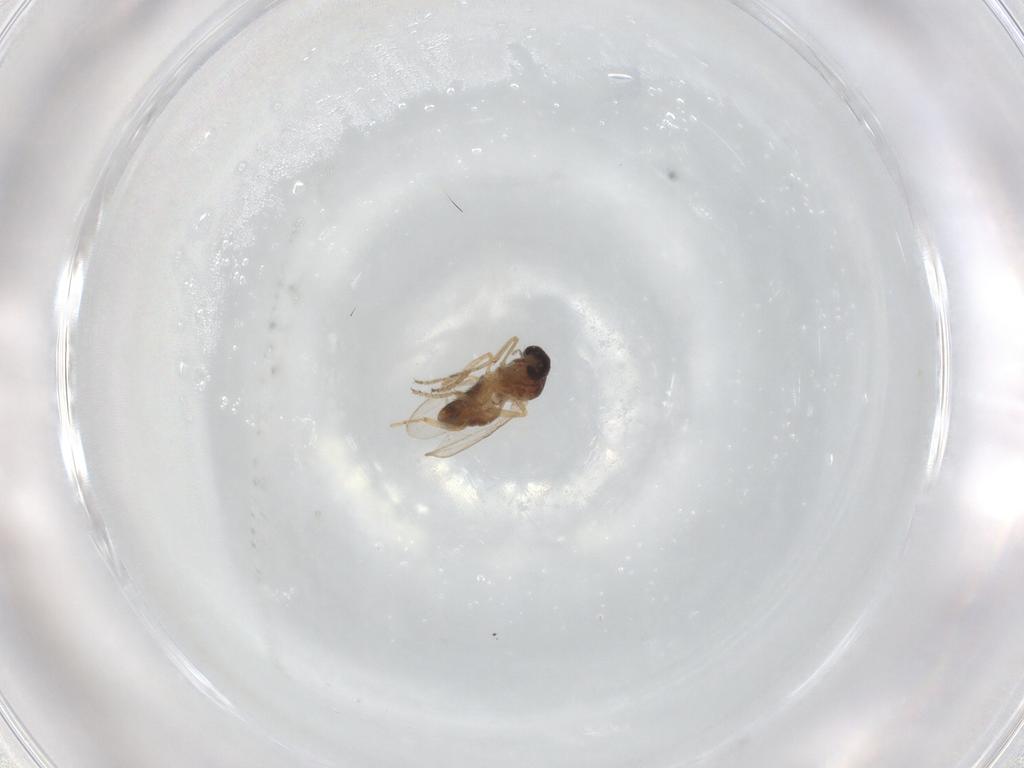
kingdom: Animalia
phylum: Arthropoda
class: Insecta
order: Diptera
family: Ceratopogonidae
